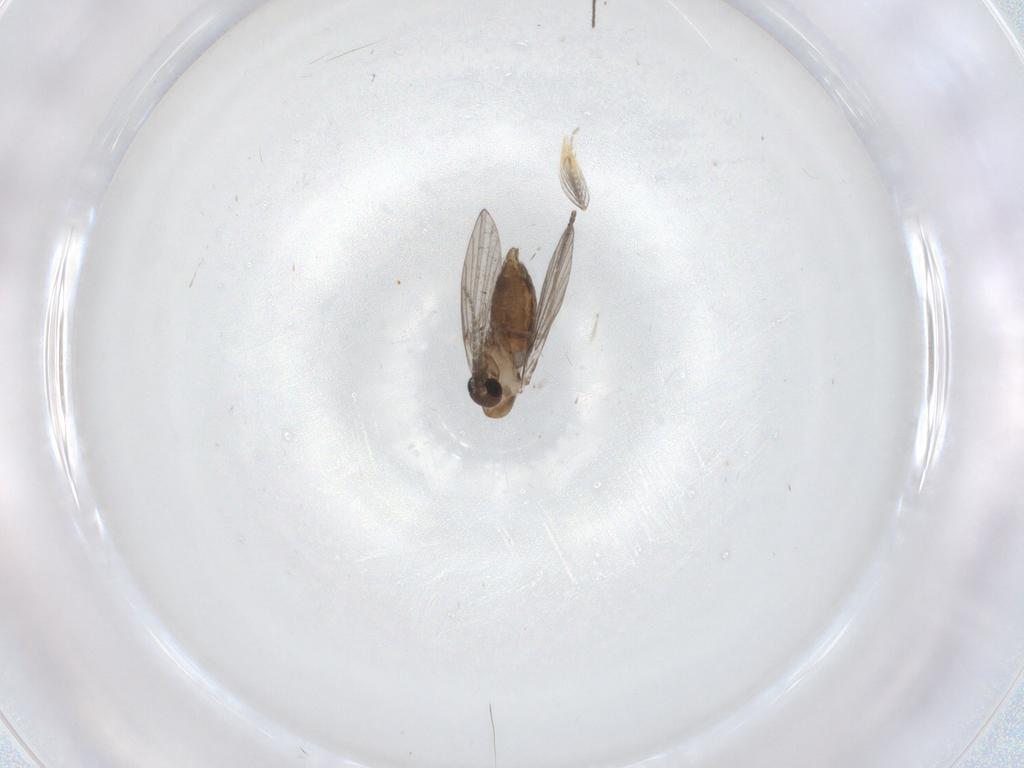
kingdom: Animalia
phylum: Arthropoda
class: Insecta
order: Diptera
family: Psychodidae
